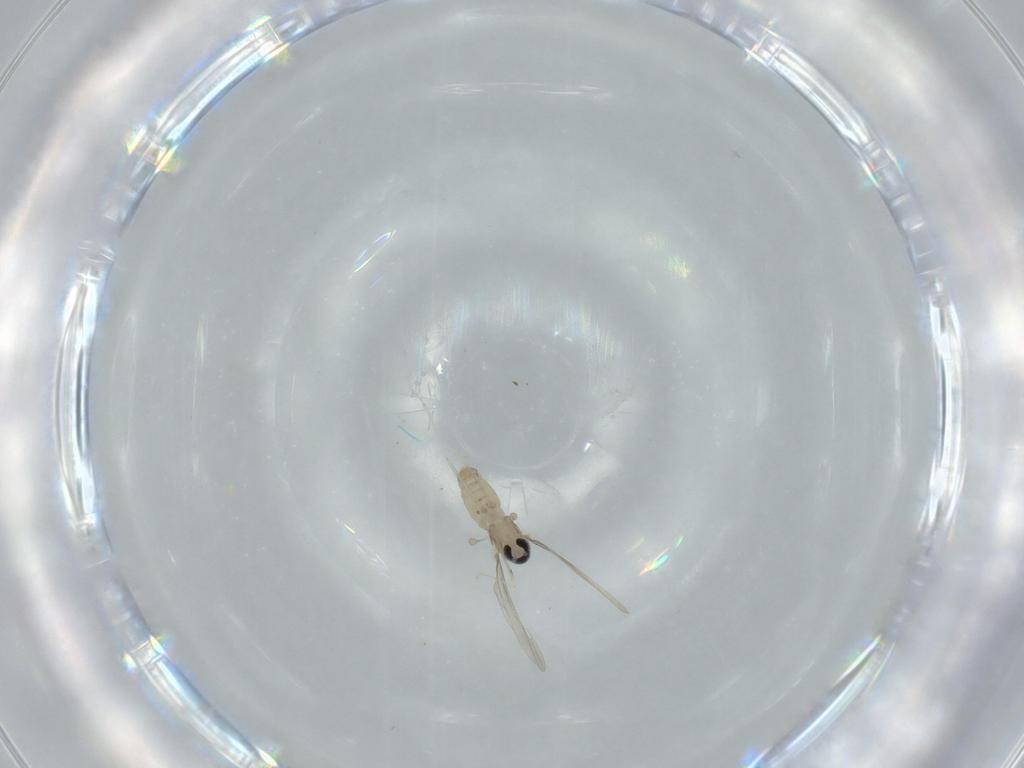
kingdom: Animalia
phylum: Arthropoda
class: Insecta
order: Diptera
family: Cecidomyiidae
